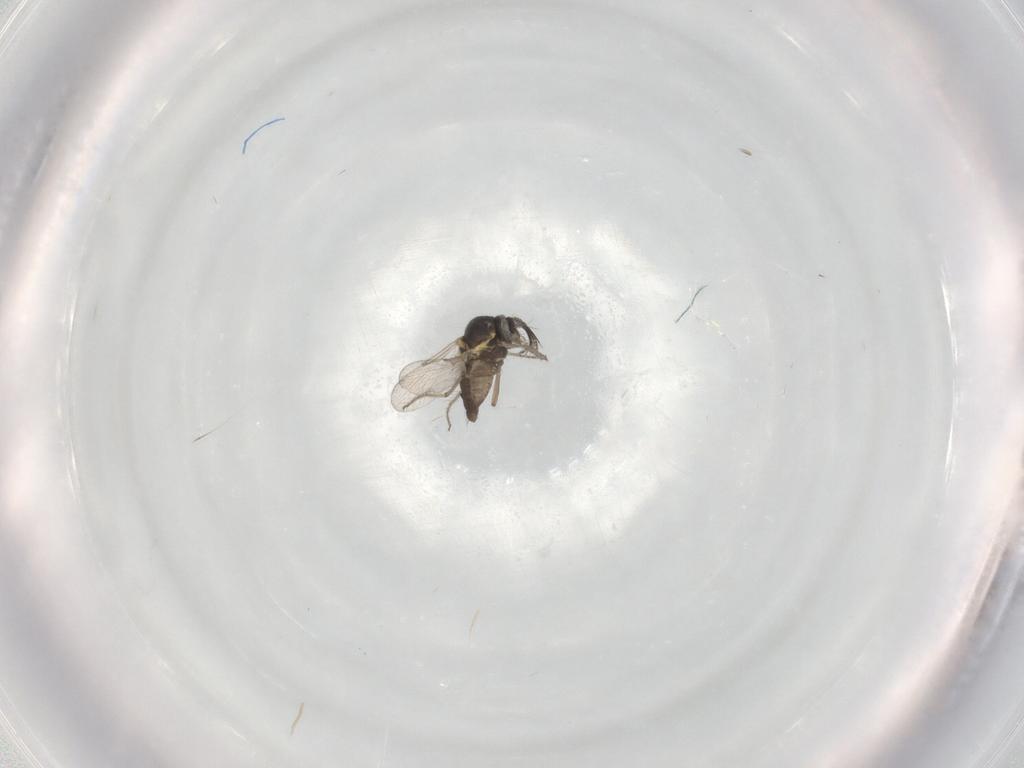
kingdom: Animalia
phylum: Arthropoda
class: Insecta
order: Diptera
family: Ceratopogonidae
